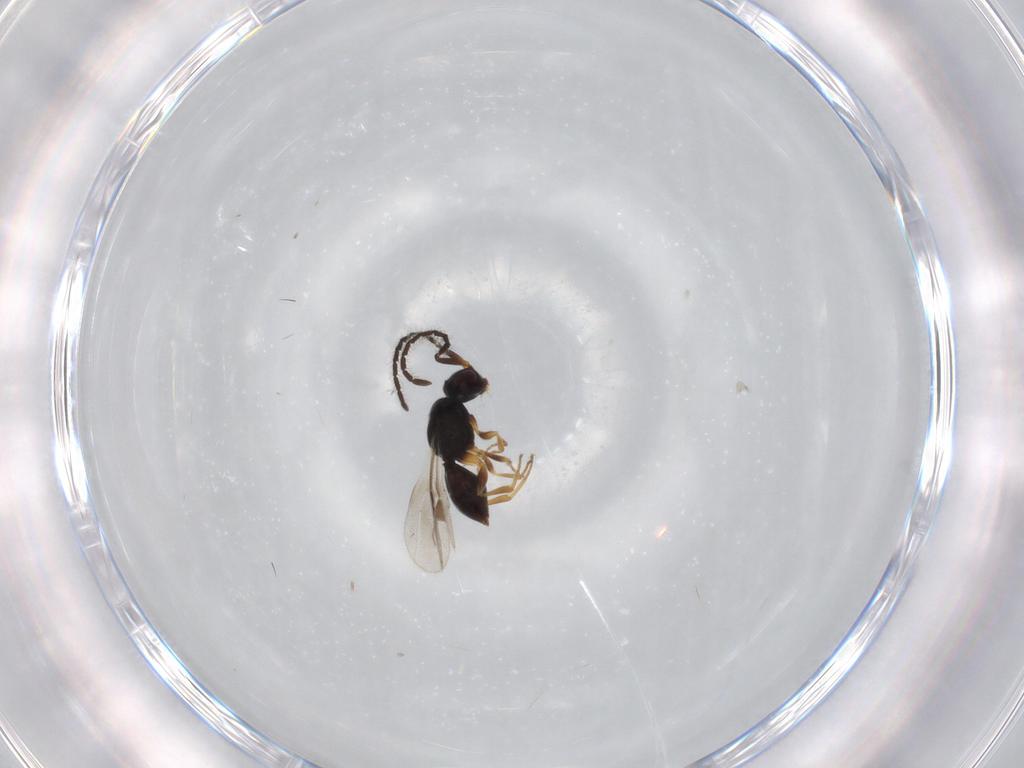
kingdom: Animalia
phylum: Arthropoda
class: Insecta
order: Hymenoptera
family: Megaspilidae
